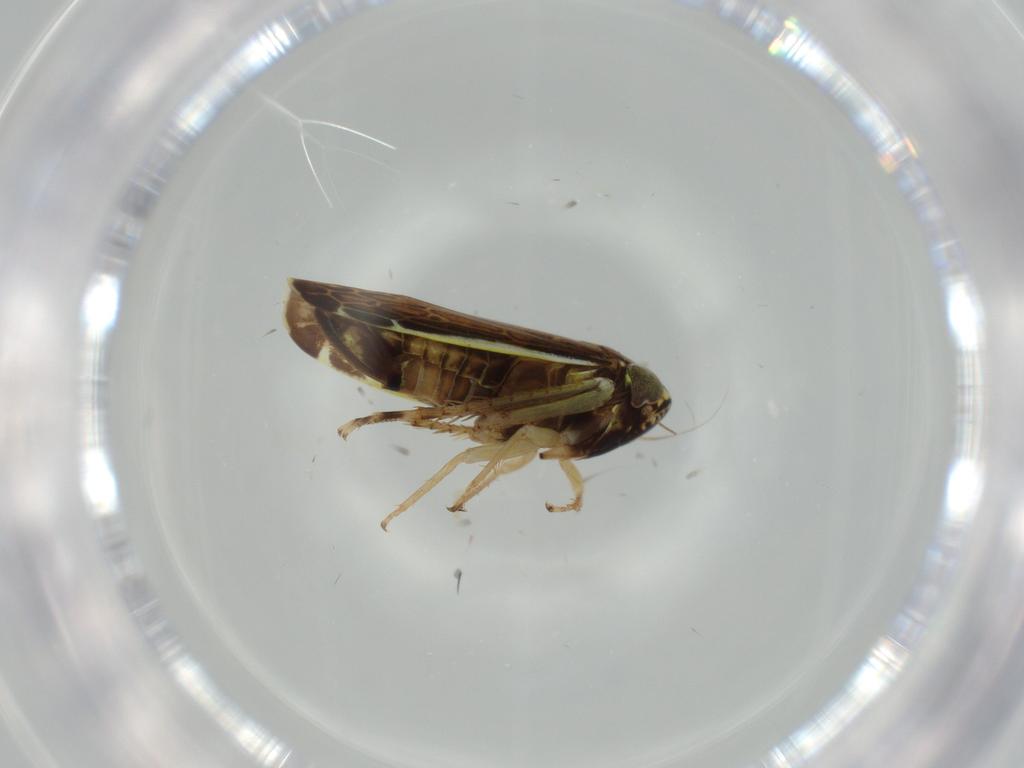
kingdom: Animalia
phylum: Arthropoda
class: Insecta
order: Hemiptera
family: Cicadellidae
